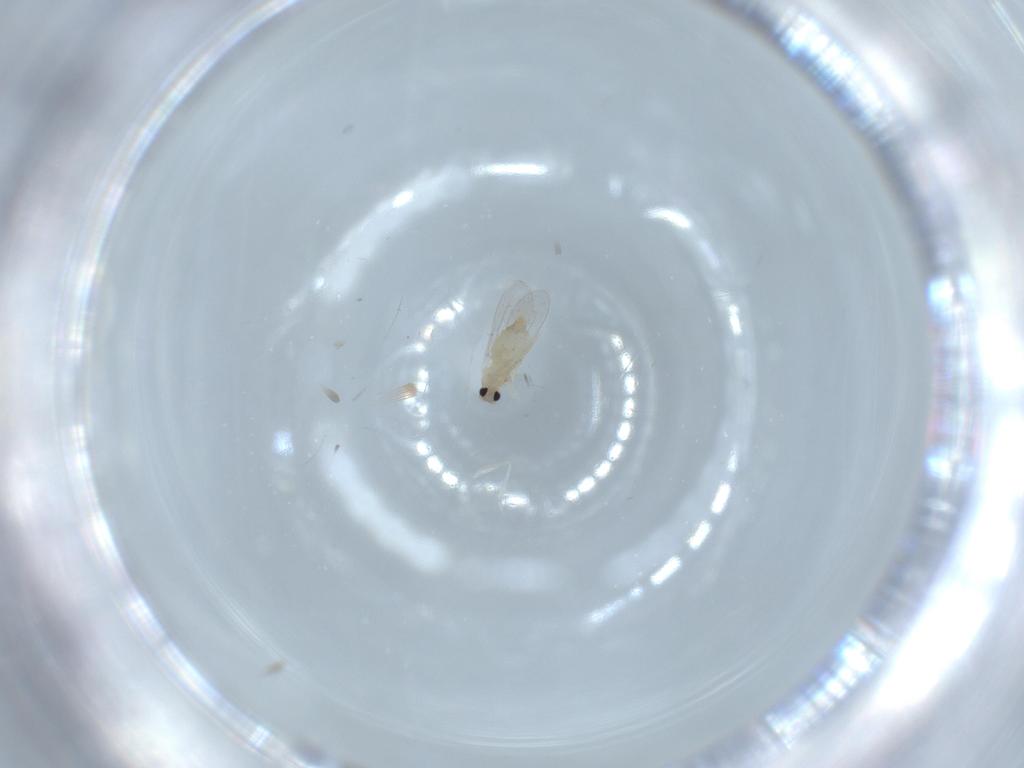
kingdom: Animalia
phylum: Arthropoda
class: Insecta
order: Diptera
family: Cecidomyiidae
